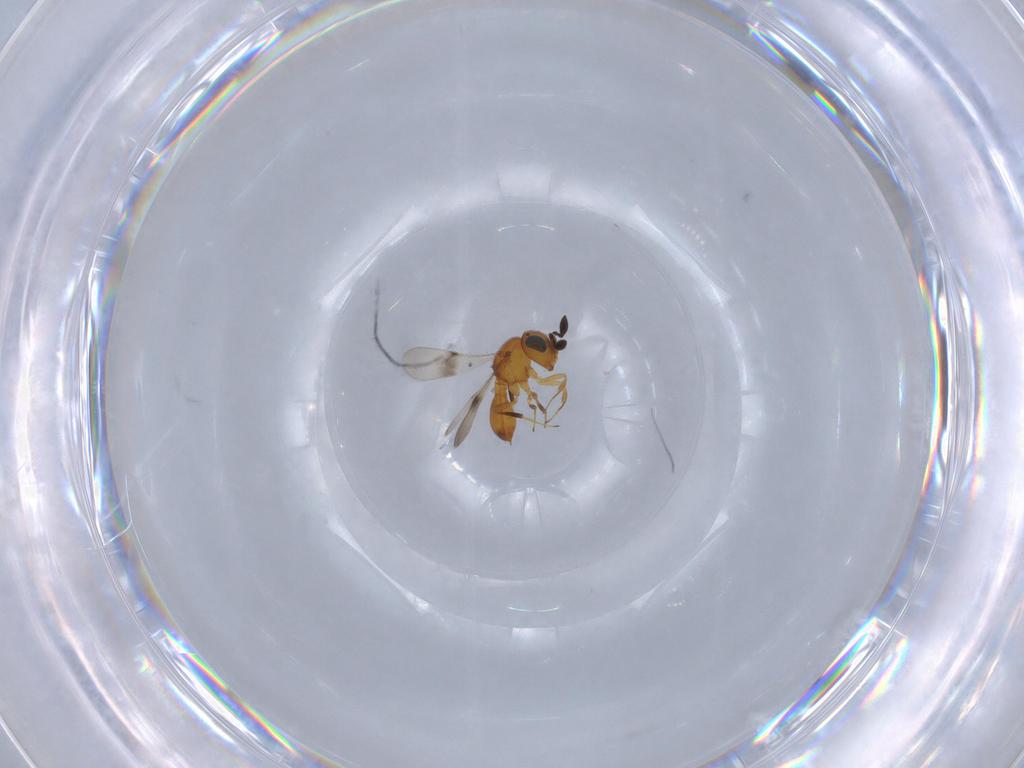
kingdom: Animalia
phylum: Arthropoda
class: Insecta
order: Hymenoptera
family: Scelionidae
